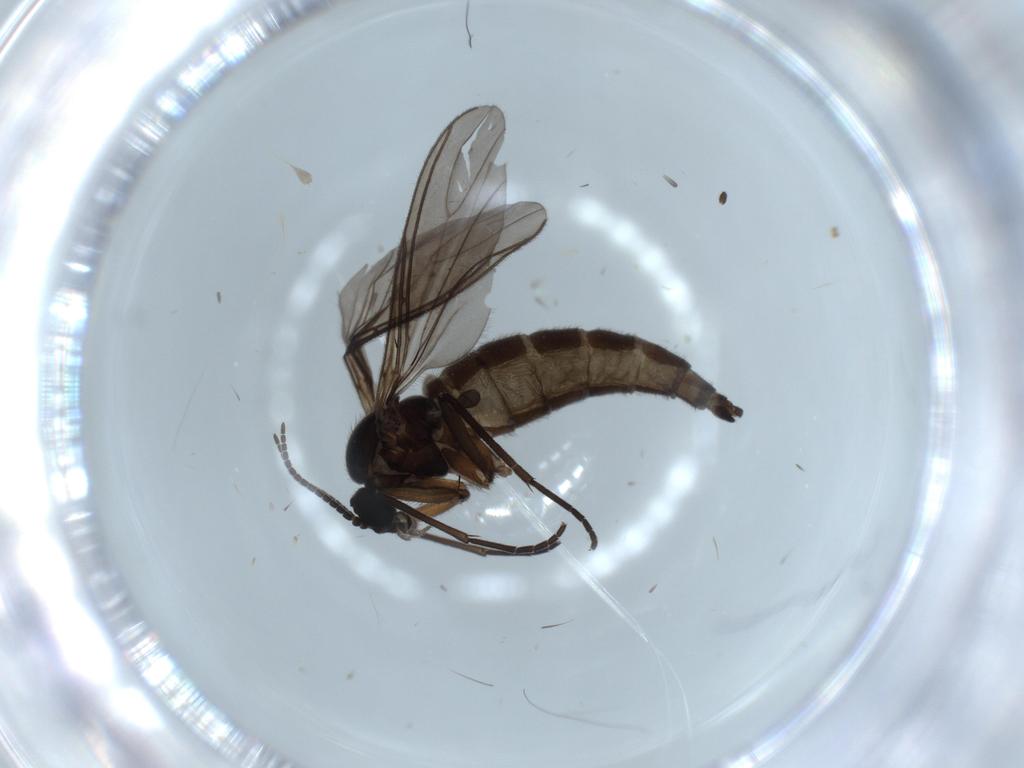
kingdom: Animalia
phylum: Arthropoda
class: Insecta
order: Diptera
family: Sciaridae
